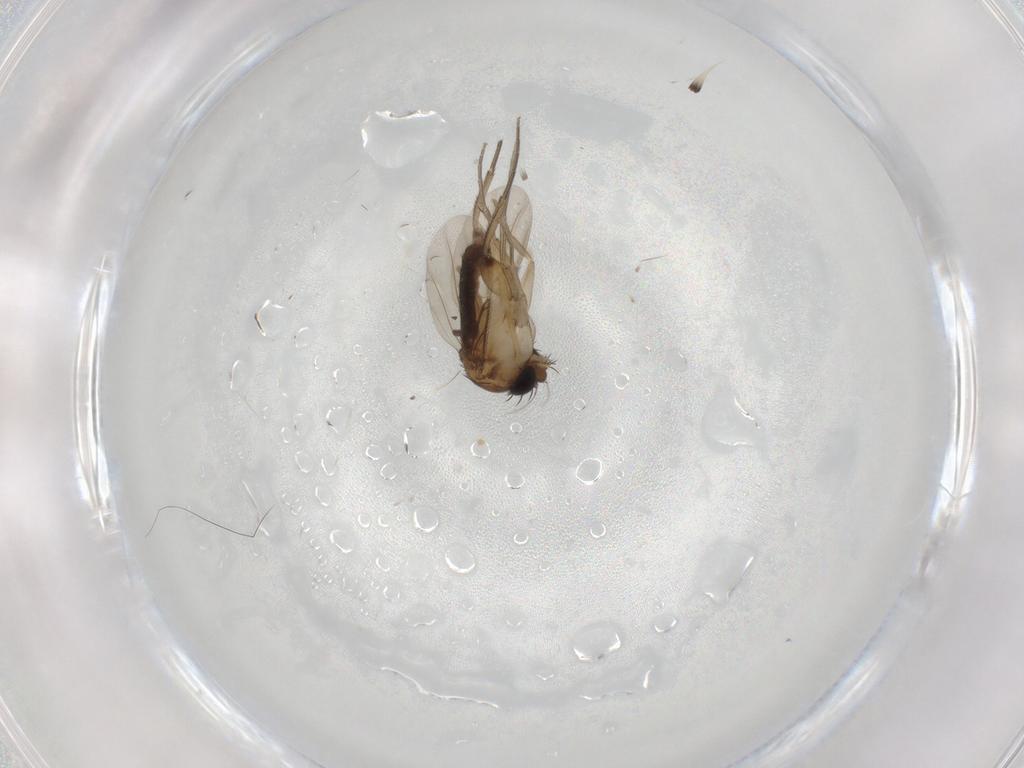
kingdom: Animalia
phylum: Arthropoda
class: Insecta
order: Diptera
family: Phoridae
